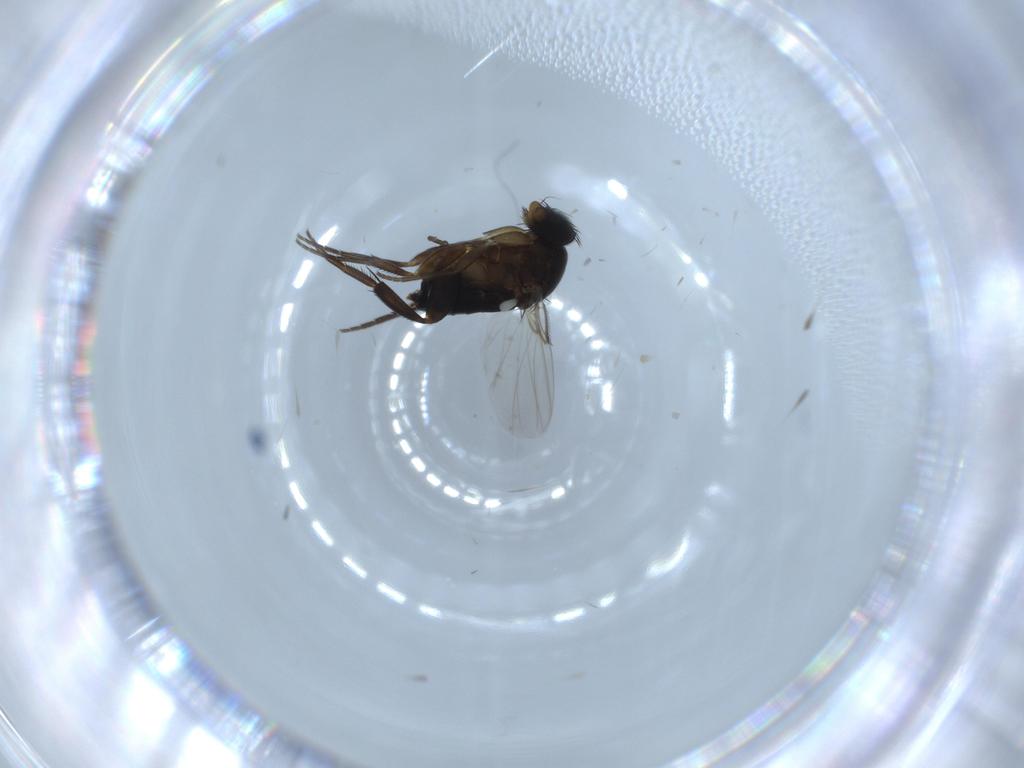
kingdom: Animalia
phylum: Arthropoda
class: Insecta
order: Diptera
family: Phoridae
